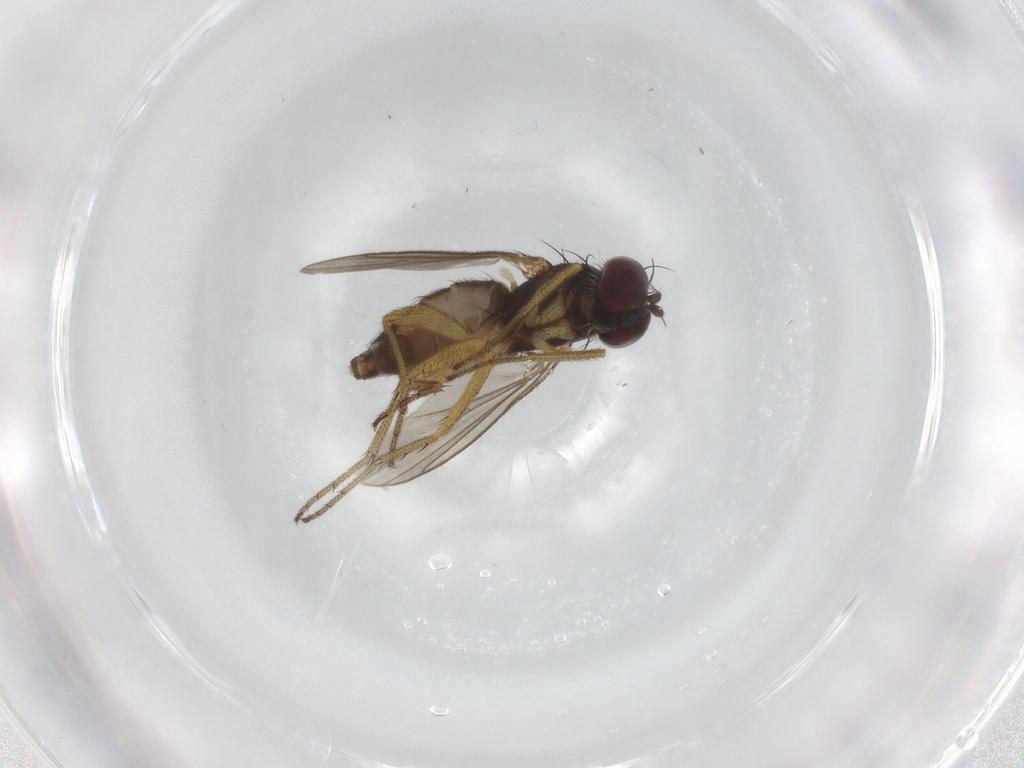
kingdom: Animalia
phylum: Arthropoda
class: Insecta
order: Diptera
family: Dolichopodidae
